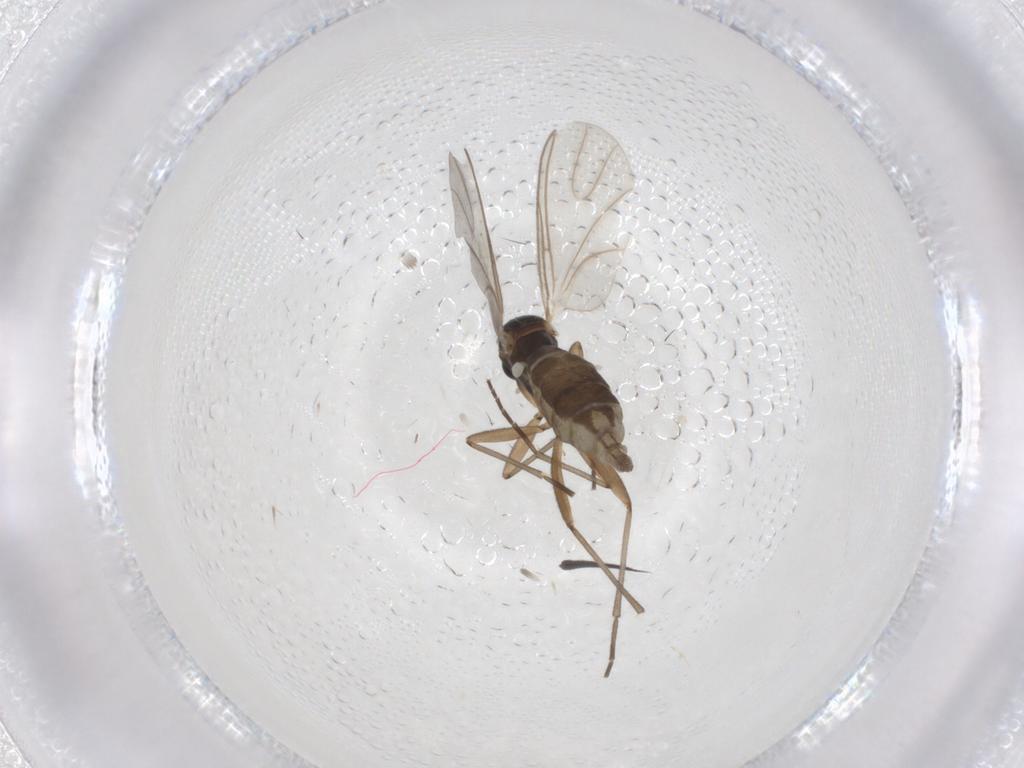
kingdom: Animalia
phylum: Arthropoda
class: Insecta
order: Diptera
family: Empididae
